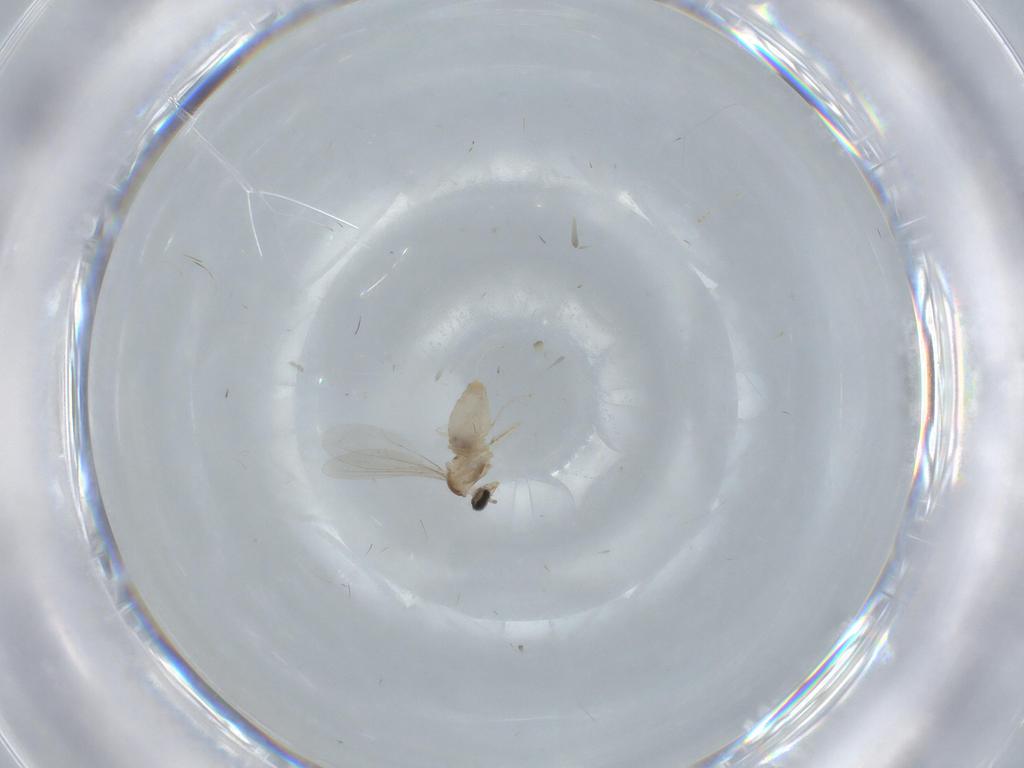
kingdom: Animalia
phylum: Arthropoda
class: Insecta
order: Diptera
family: Cecidomyiidae
